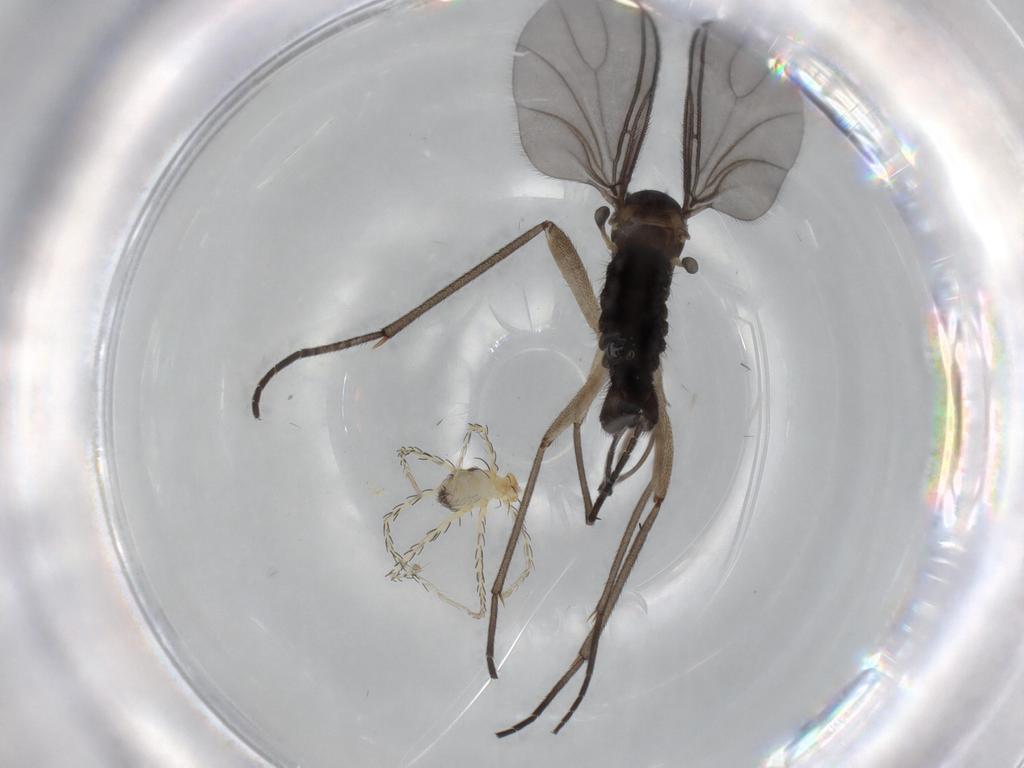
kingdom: Animalia
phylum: Arthropoda
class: Insecta
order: Diptera
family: Sciaridae
